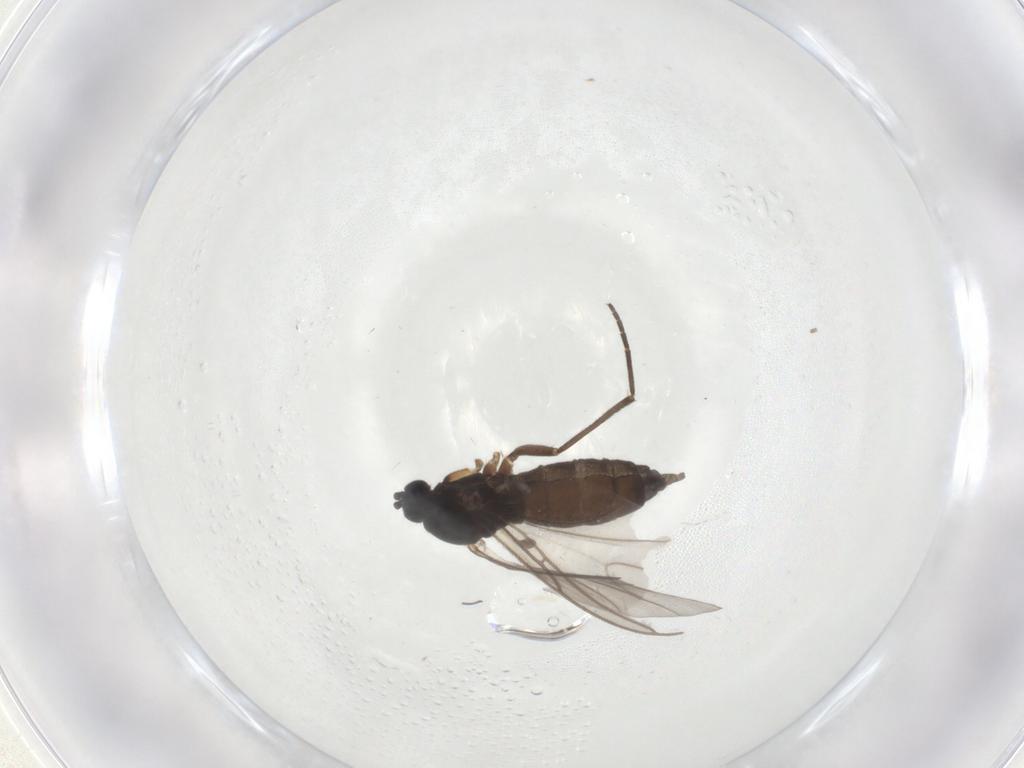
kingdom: Animalia
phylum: Arthropoda
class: Insecta
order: Diptera
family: Sciaridae
